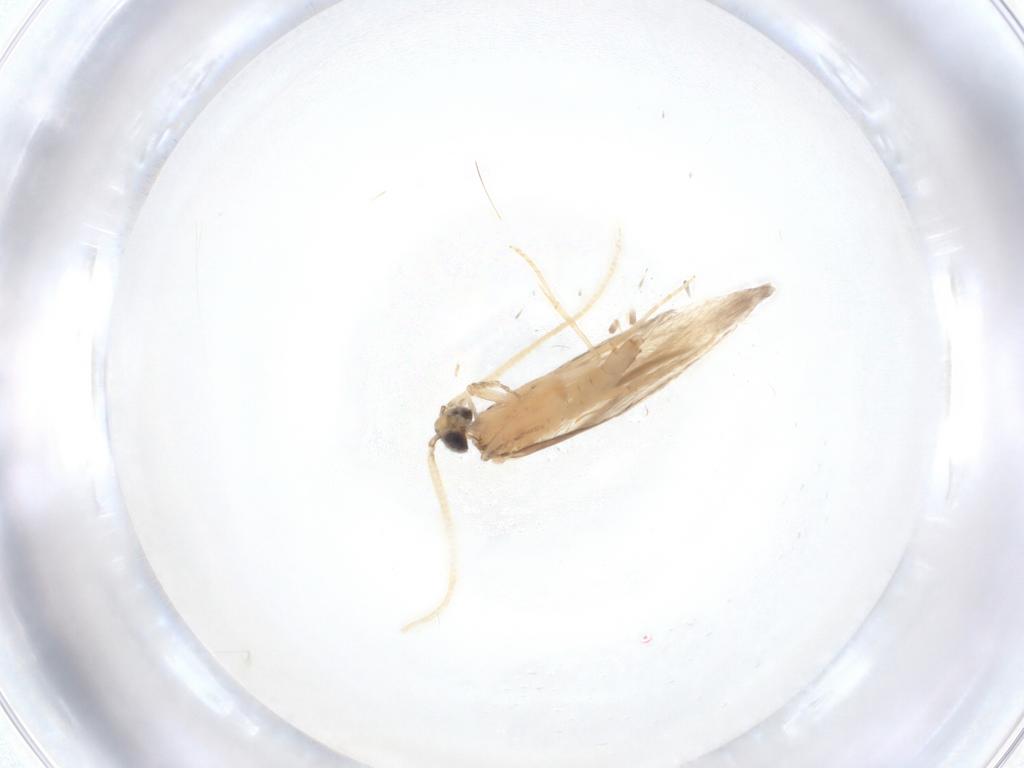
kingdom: Animalia
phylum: Arthropoda
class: Insecta
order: Trichoptera
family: Hydroptilidae
